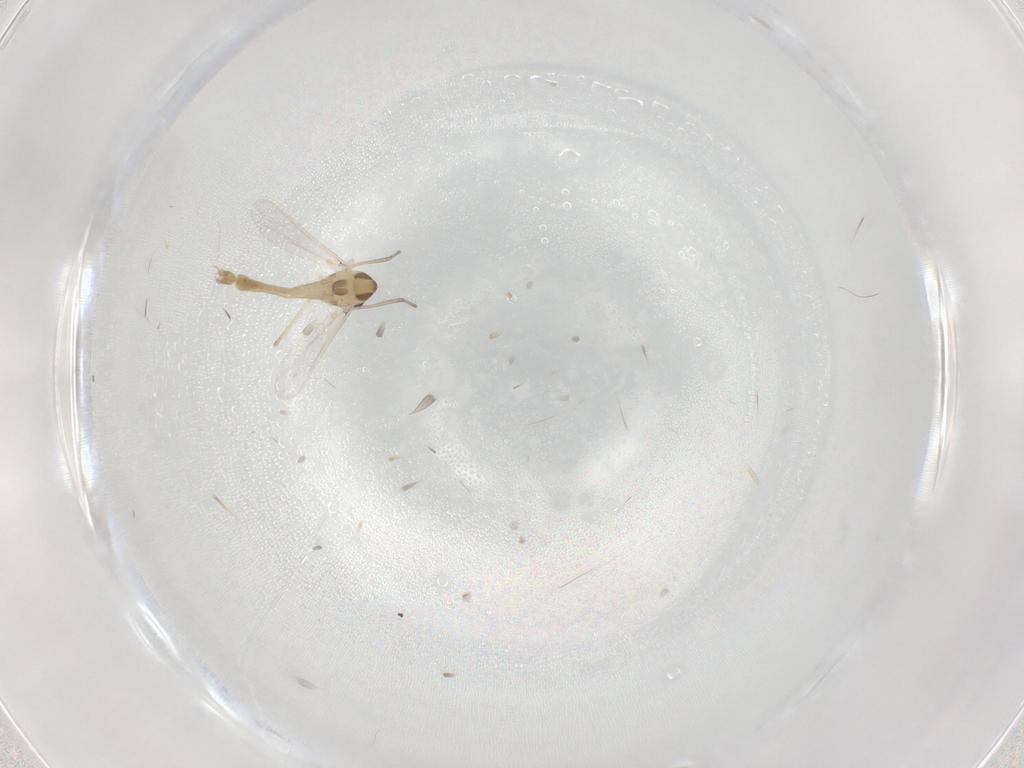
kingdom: Animalia
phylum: Arthropoda
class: Insecta
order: Diptera
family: Chironomidae
